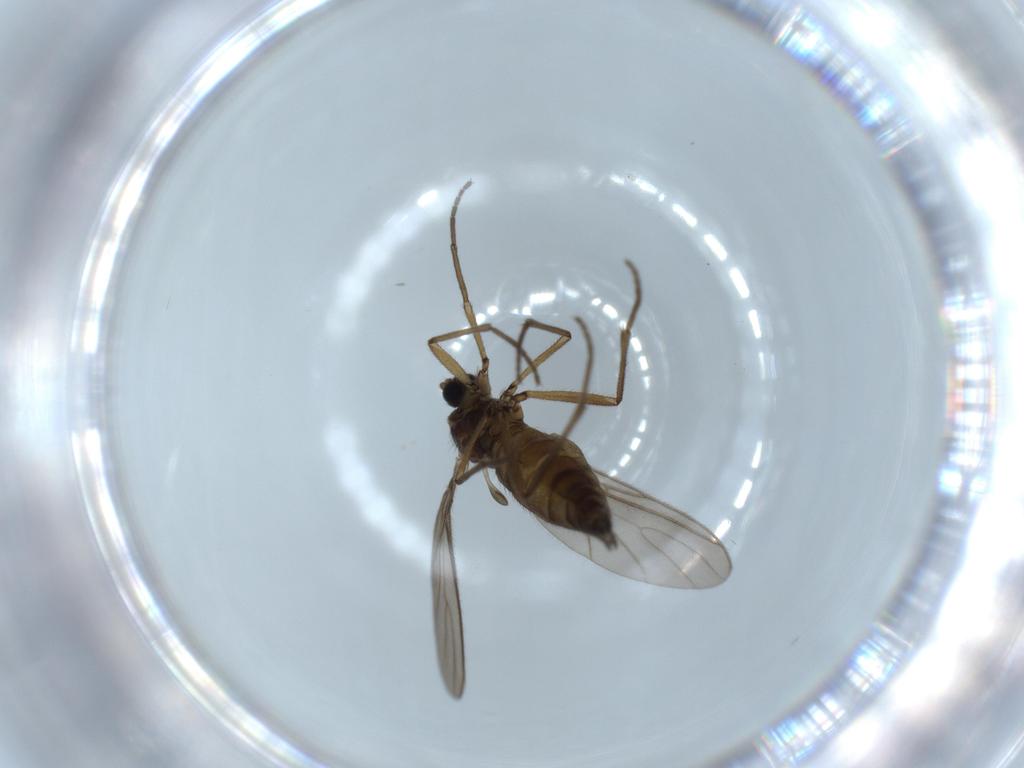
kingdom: Animalia
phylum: Arthropoda
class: Insecta
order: Diptera
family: Sciaridae
